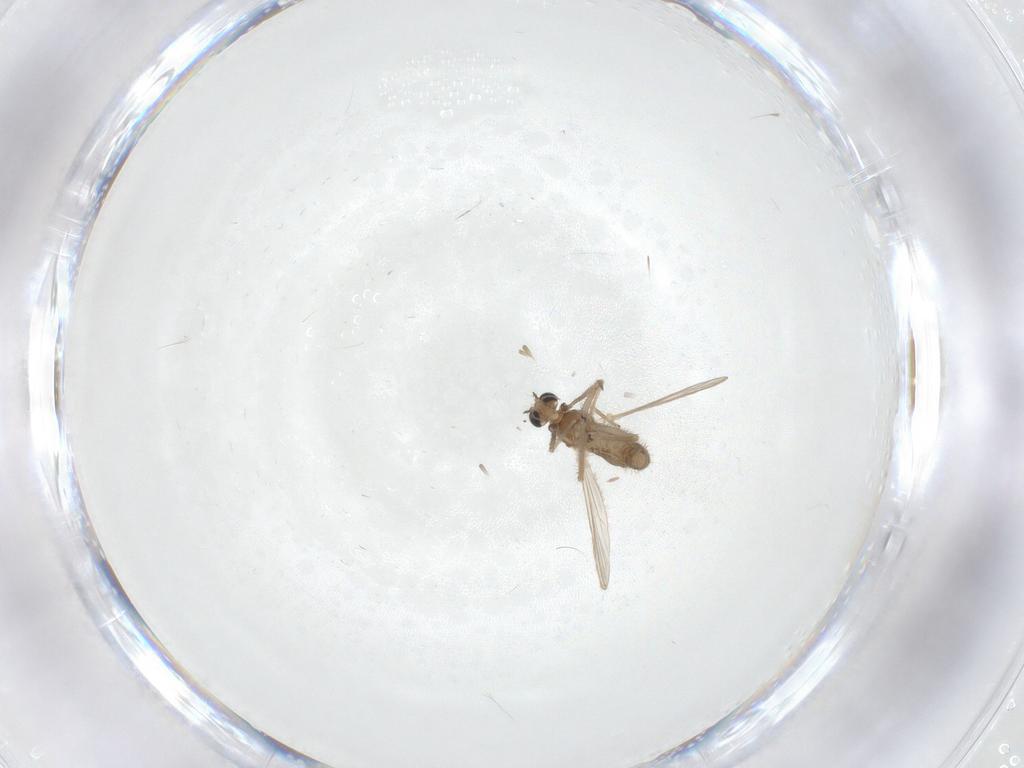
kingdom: Animalia
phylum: Arthropoda
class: Insecta
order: Diptera
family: Chironomidae
